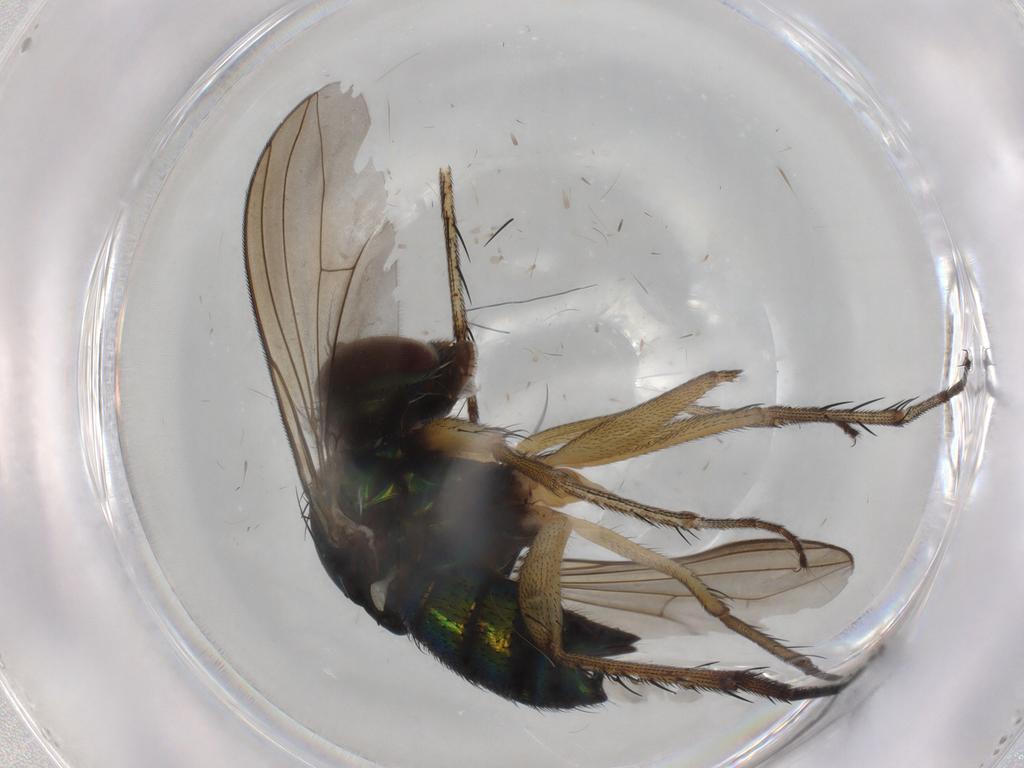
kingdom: Animalia
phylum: Arthropoda
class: Insecta
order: Diptera
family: Dolichopodidae
